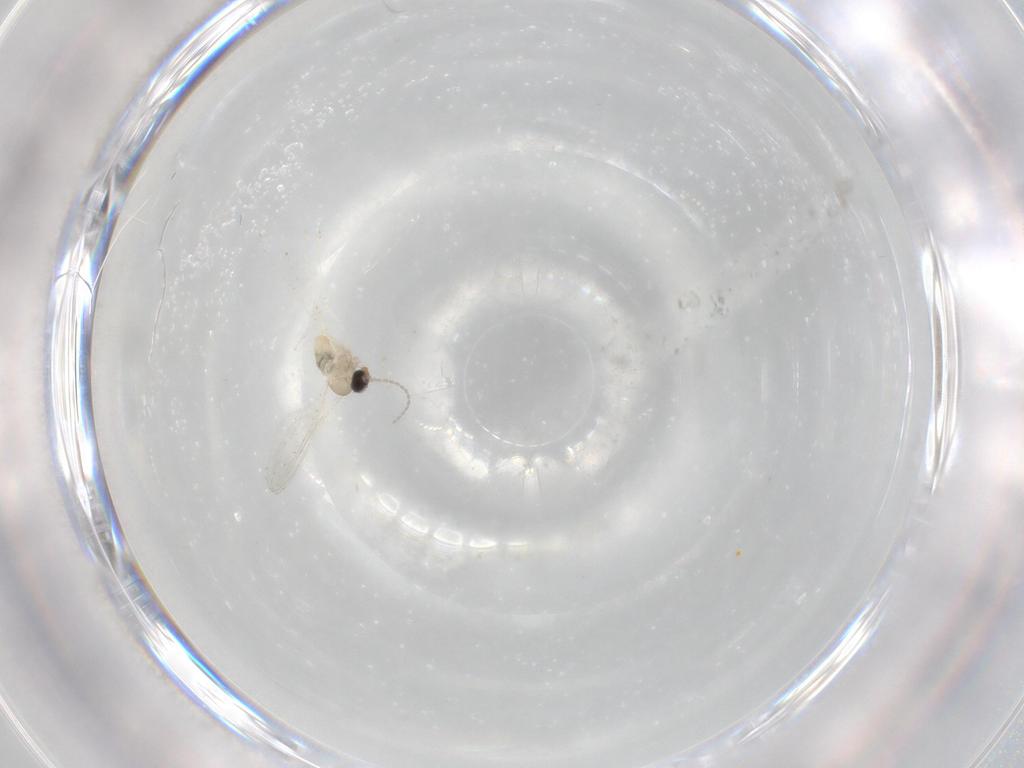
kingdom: Animalia
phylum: Arthropoda
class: Insecta
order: Diptera
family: Cecidomyiidae
